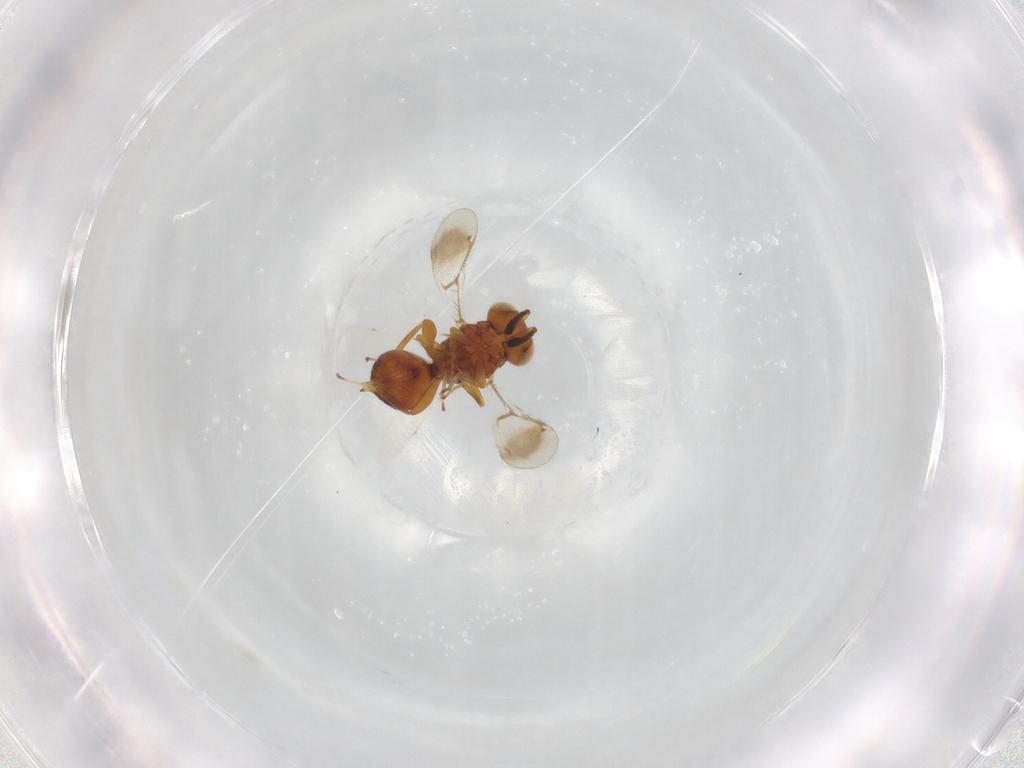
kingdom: Animalia
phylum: Arthropoda
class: Insecta
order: Hymenoptera
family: Moranilidae
